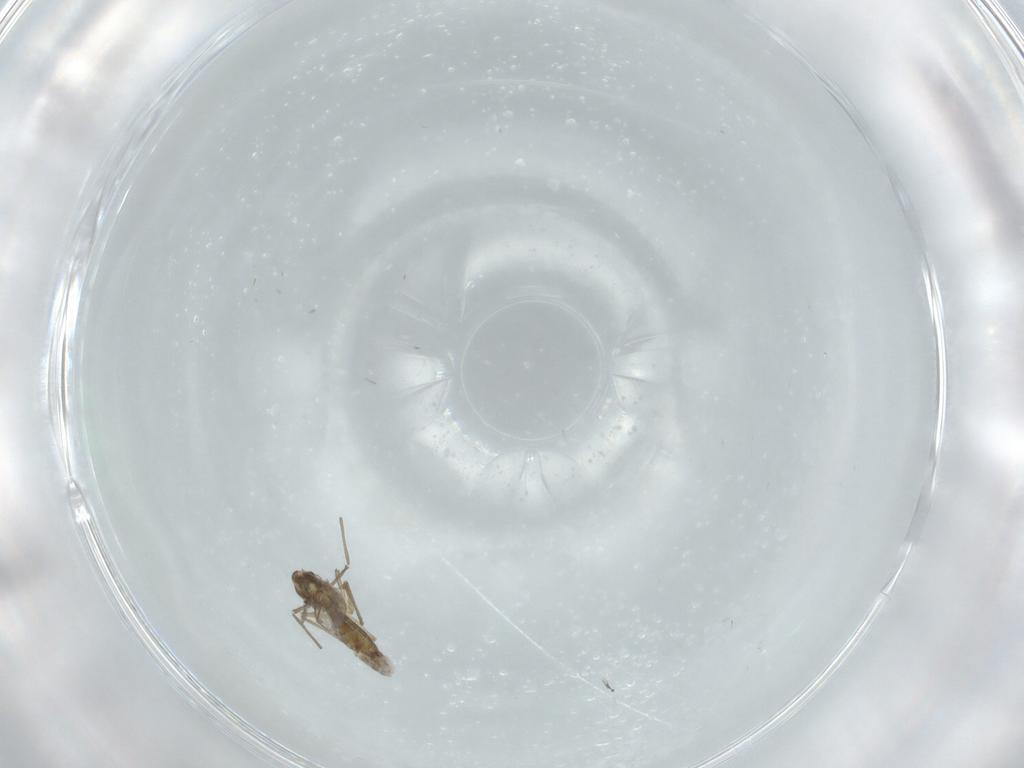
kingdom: Animalia
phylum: Arthropoda
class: Insecta
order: Diptera
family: Chironomidae
